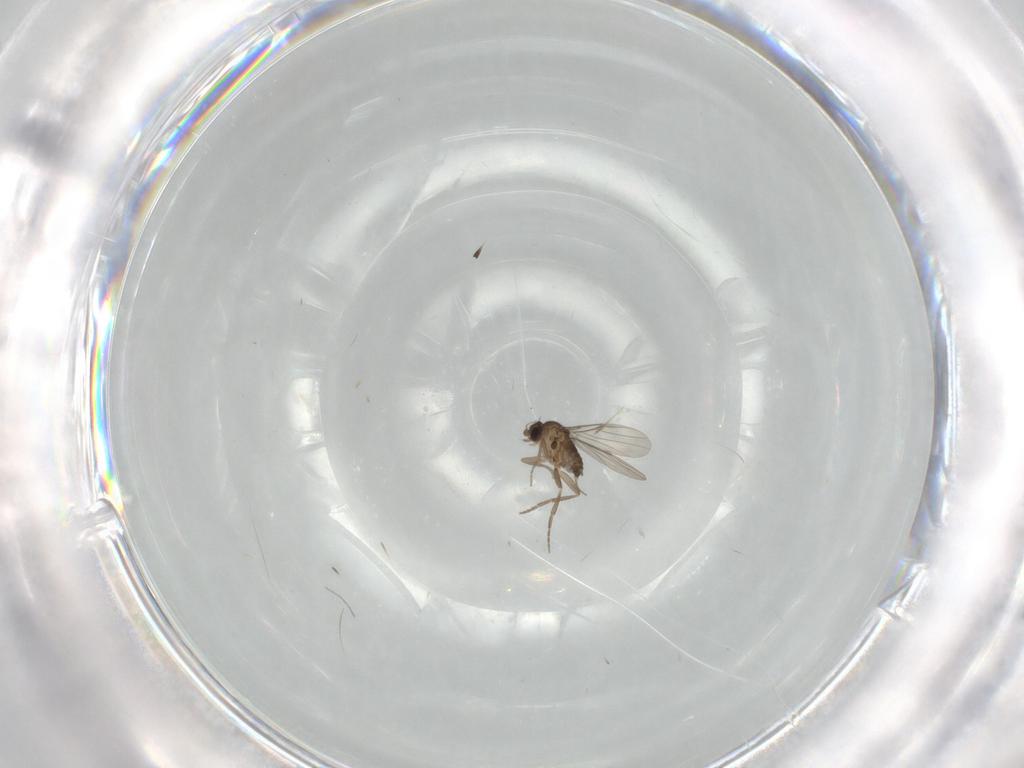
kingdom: Animalia
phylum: Arthropoda
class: Insecta
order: Diptera
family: Phoridae
